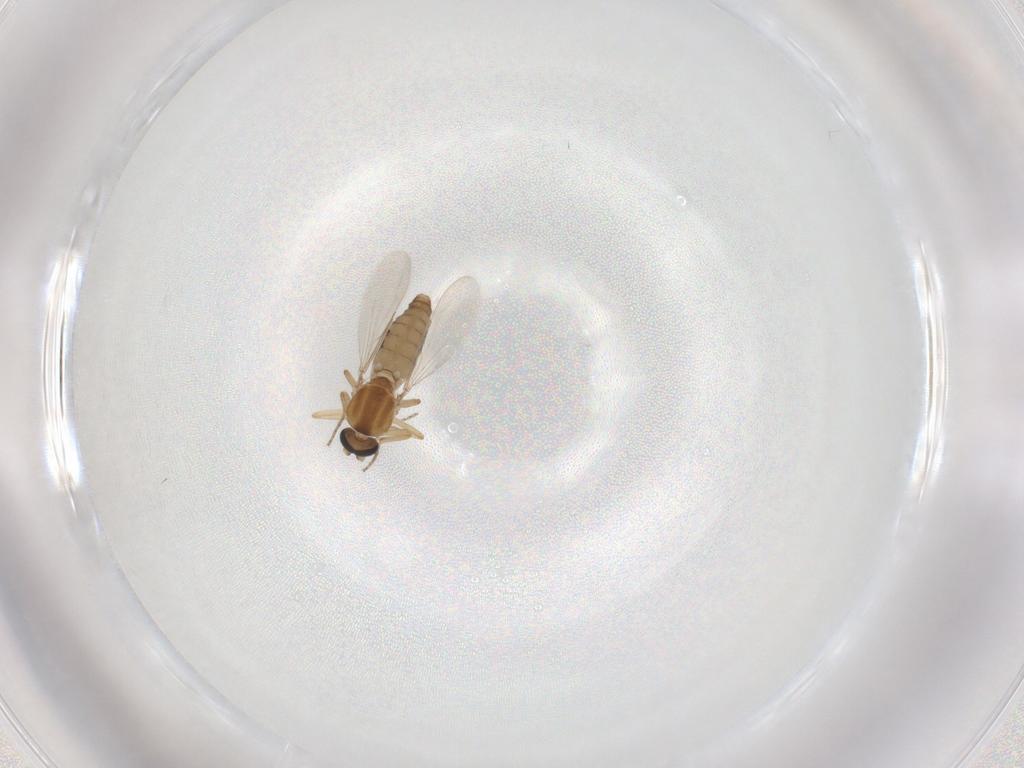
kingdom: Animalia
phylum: Arthropoda
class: Insecta
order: Diptera
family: Ceratopogonidae
